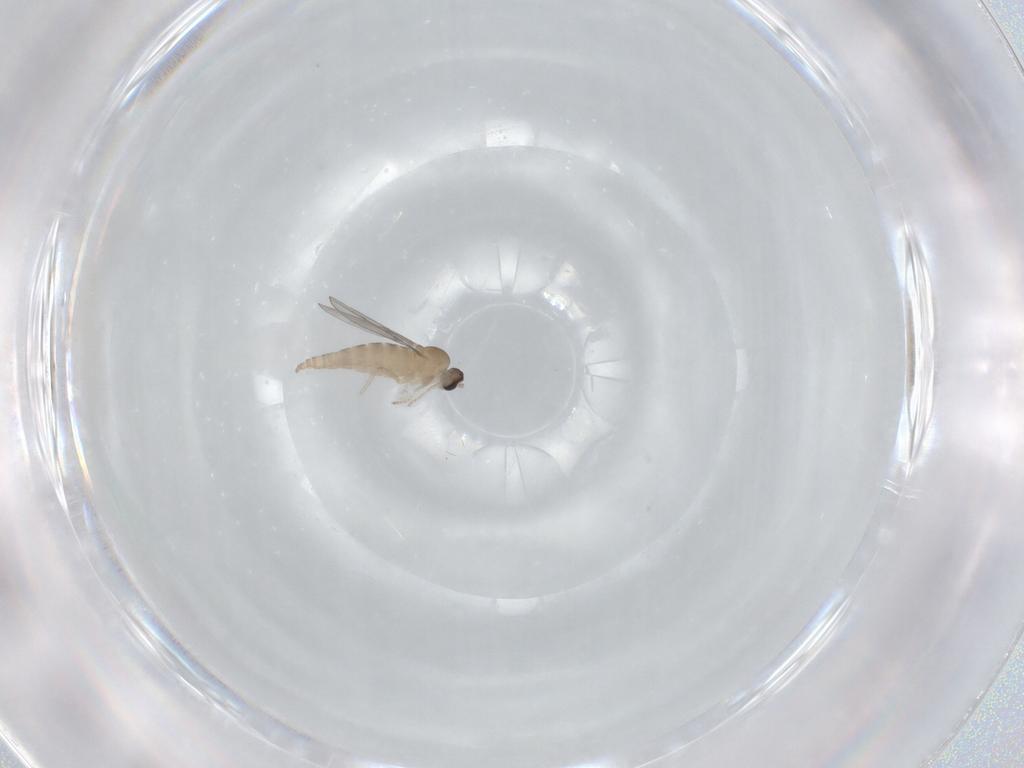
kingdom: Animalia
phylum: Arthropoda
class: Insecta
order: Diptera
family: Cecidomyiidae
